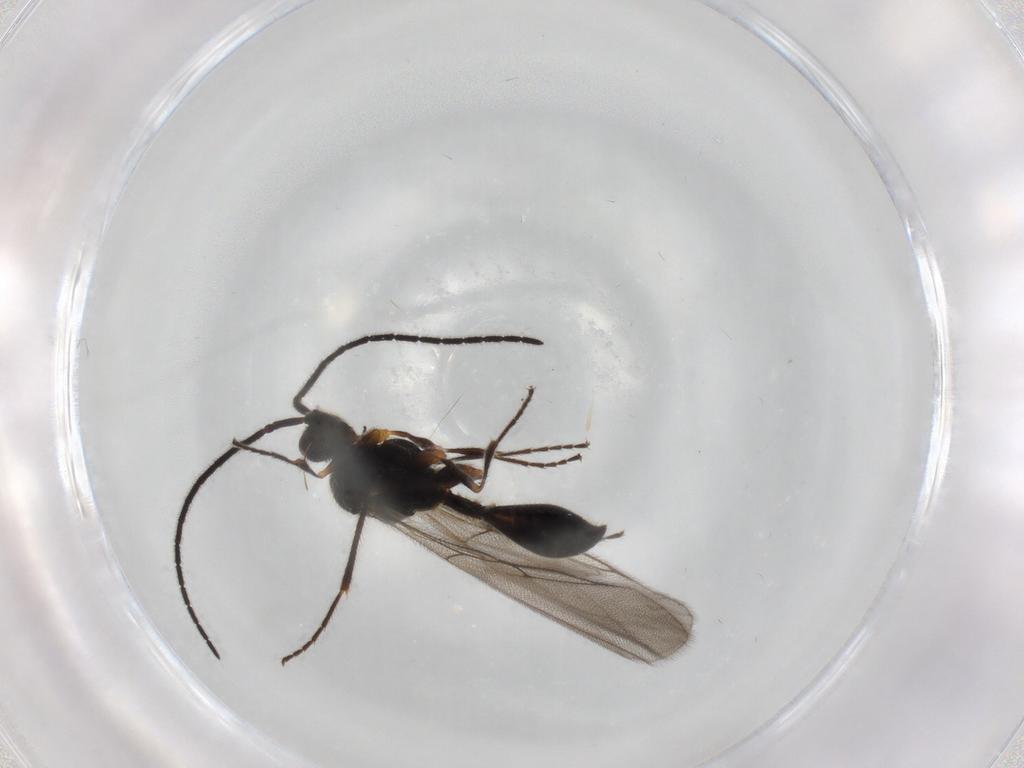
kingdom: Animalia
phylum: Arthropoda
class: Insecta
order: Hymenoptera
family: Diapriidae
